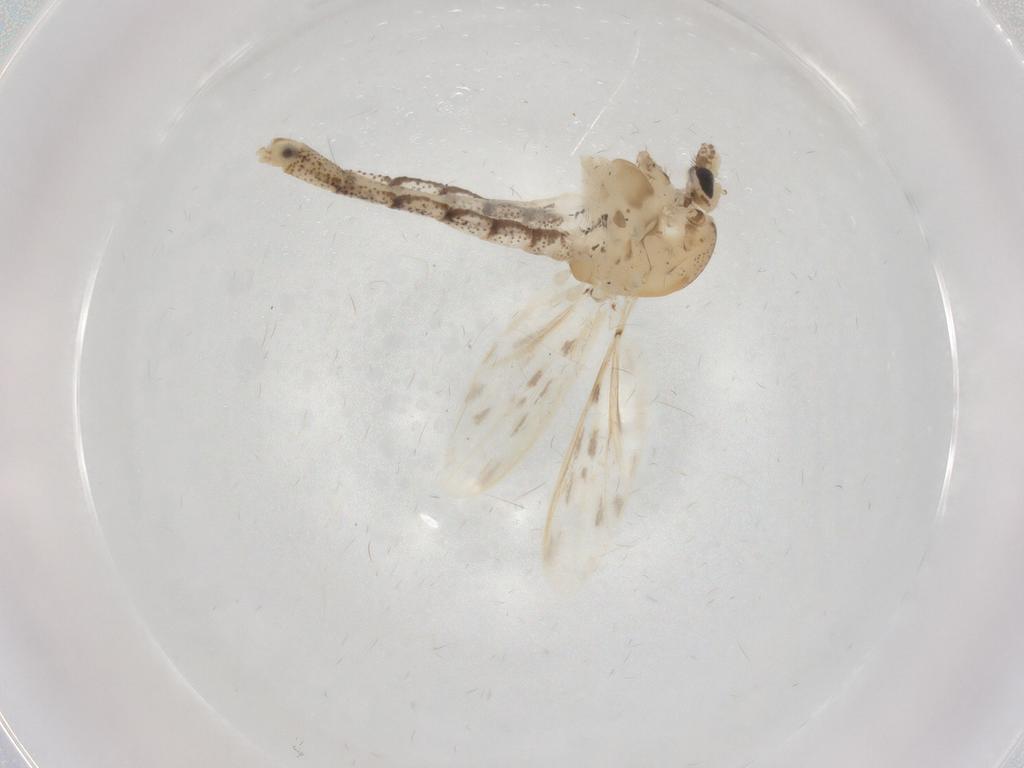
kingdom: Animalia
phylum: Arthropoda
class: Insecta
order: Diptera
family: Chaoboridae
